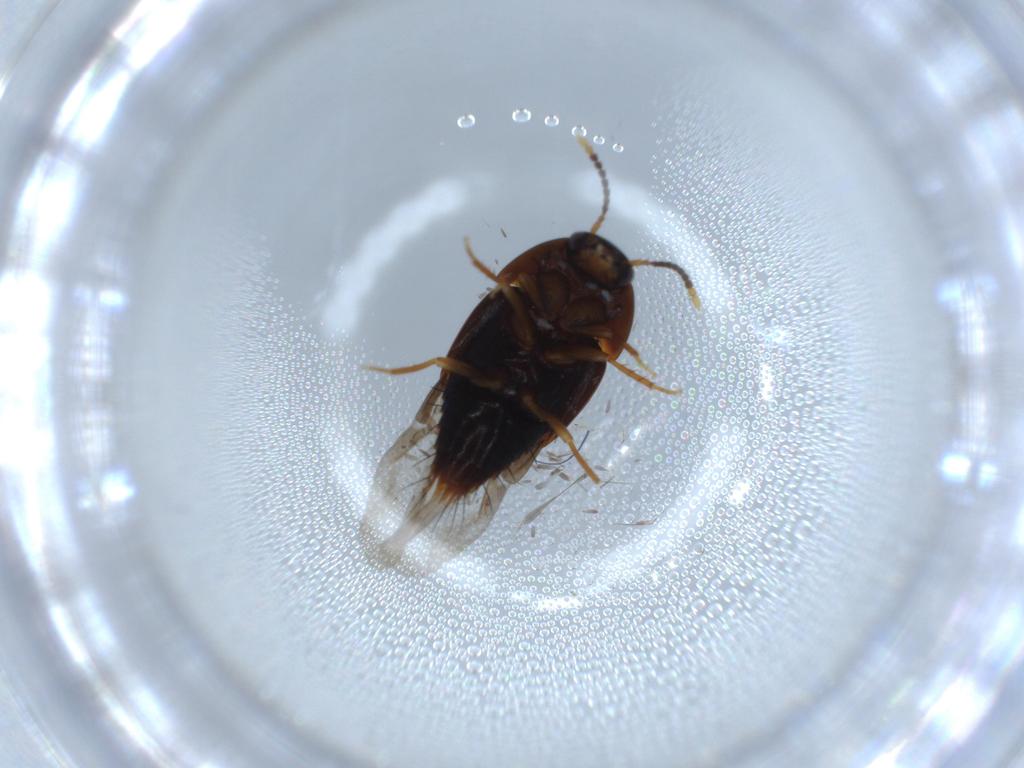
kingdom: Animalia
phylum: Arthropoda
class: Insecta
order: Coleoptera
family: Staphylinidae
